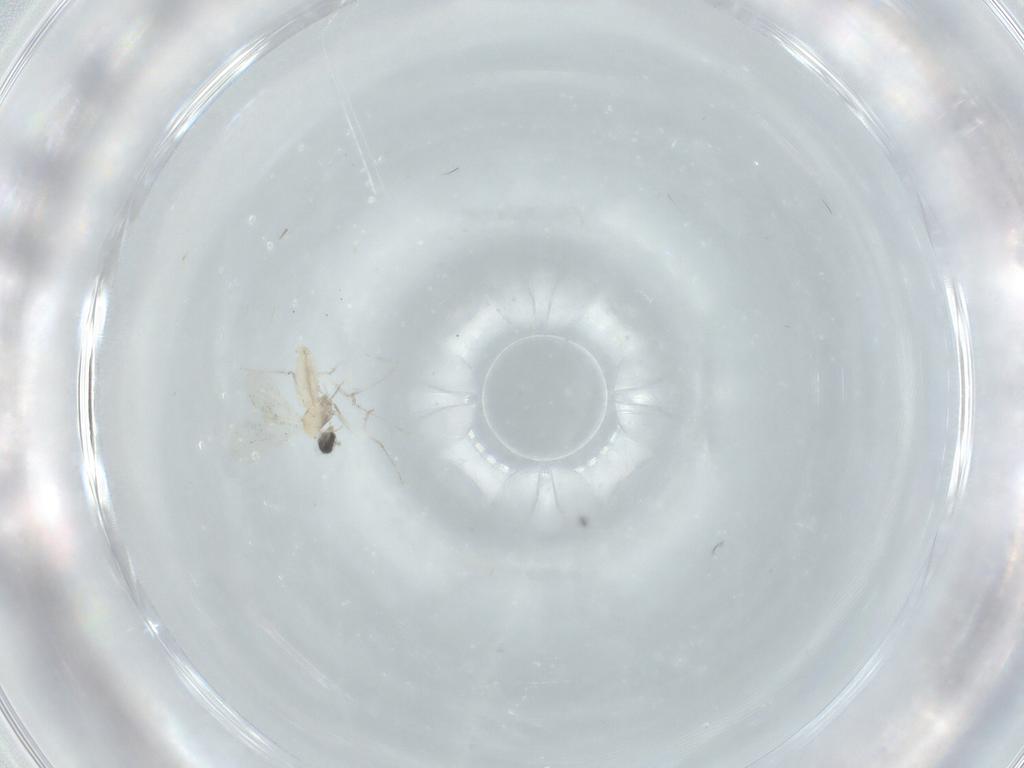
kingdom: Animalia
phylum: Arthropoda
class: Insecta
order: Diptera
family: Cecidomyiidae
